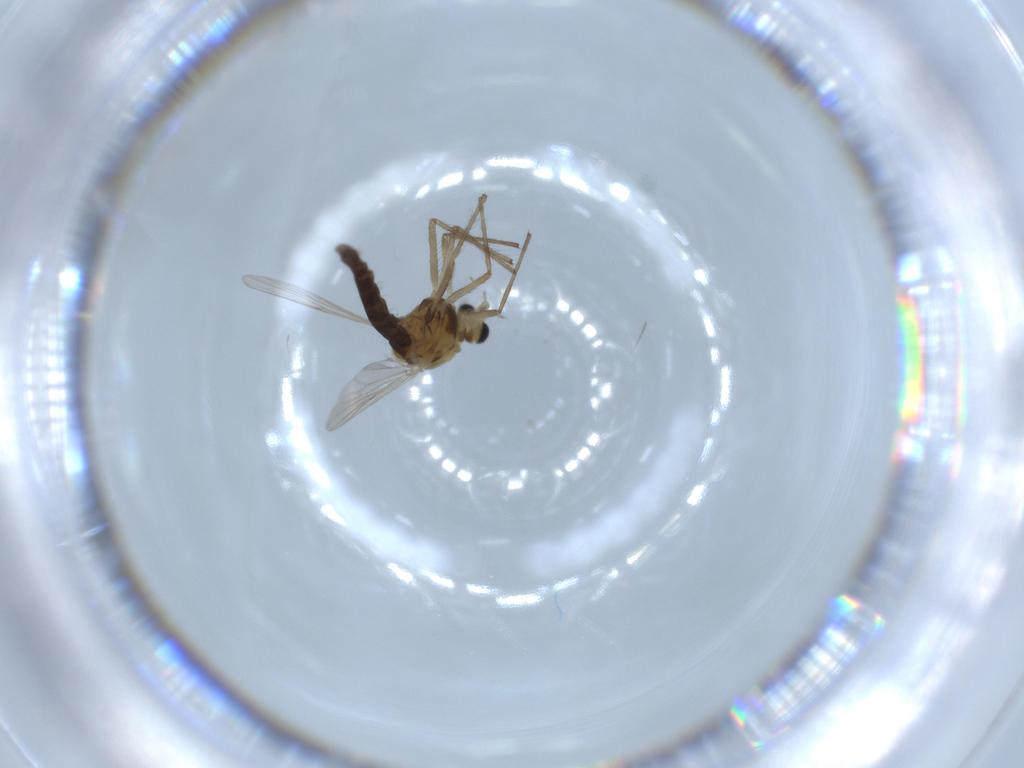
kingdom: Animalia
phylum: Arthropoda
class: Insecta
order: Diptera
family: Chironomidae
